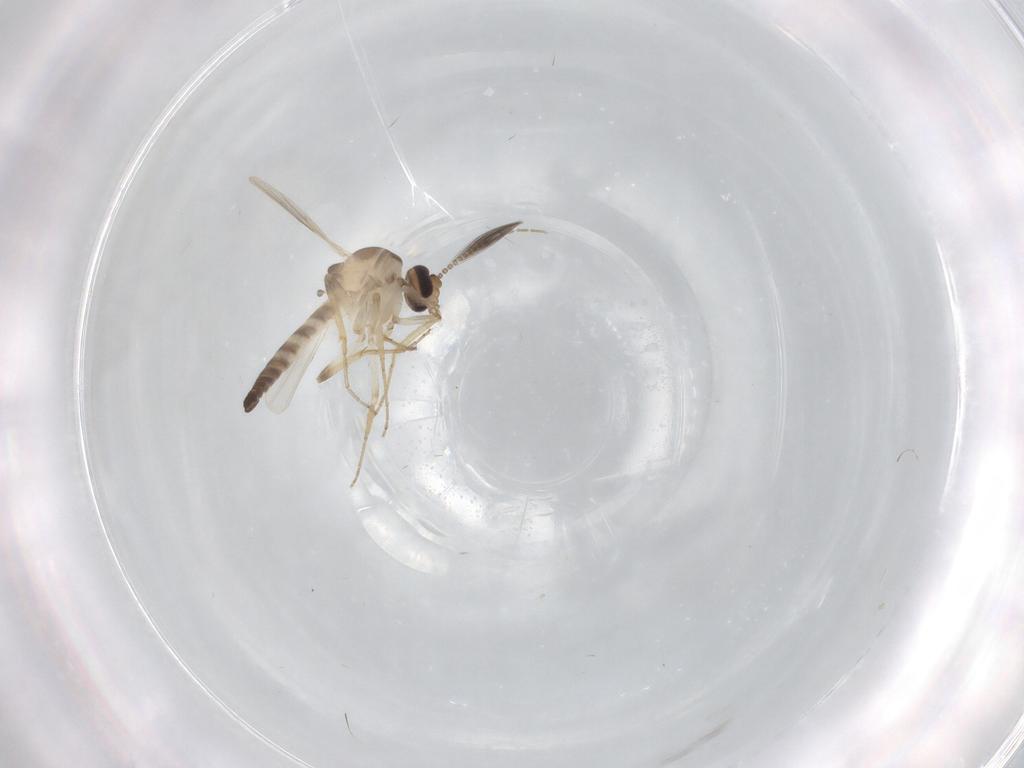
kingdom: Animalia
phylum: Arthropoda
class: Insecta
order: Diptera
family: Ceratopogonidae
